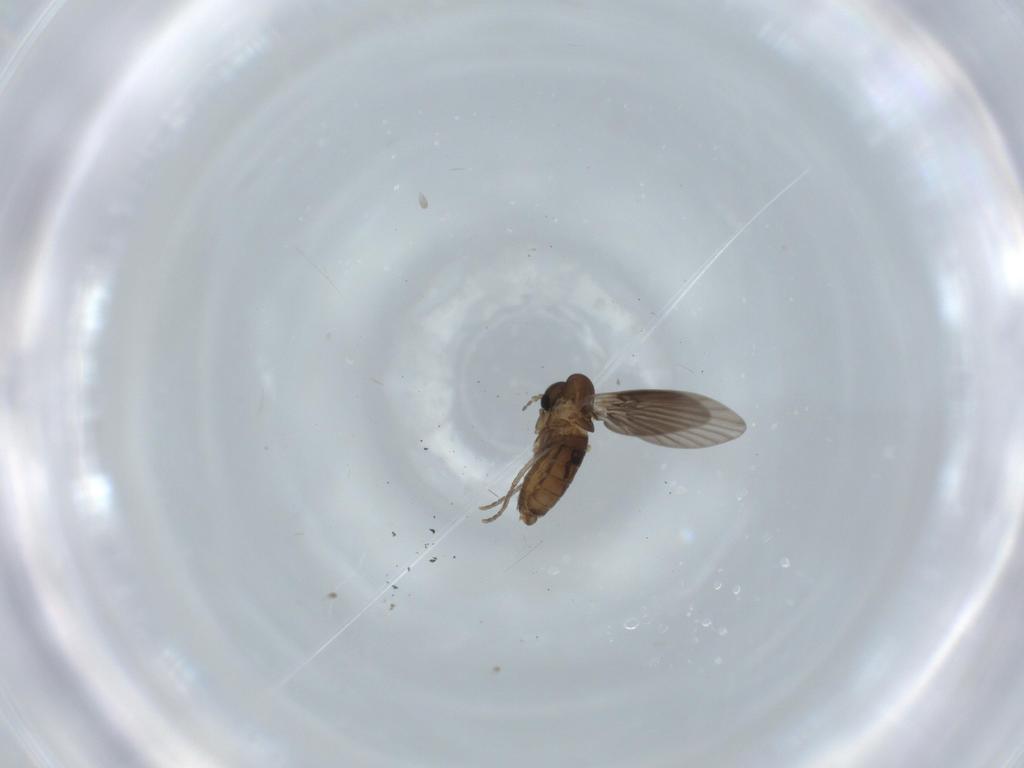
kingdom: Animalia
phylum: Arthropoda
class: Insecta
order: Diptera
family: Psychodidae
